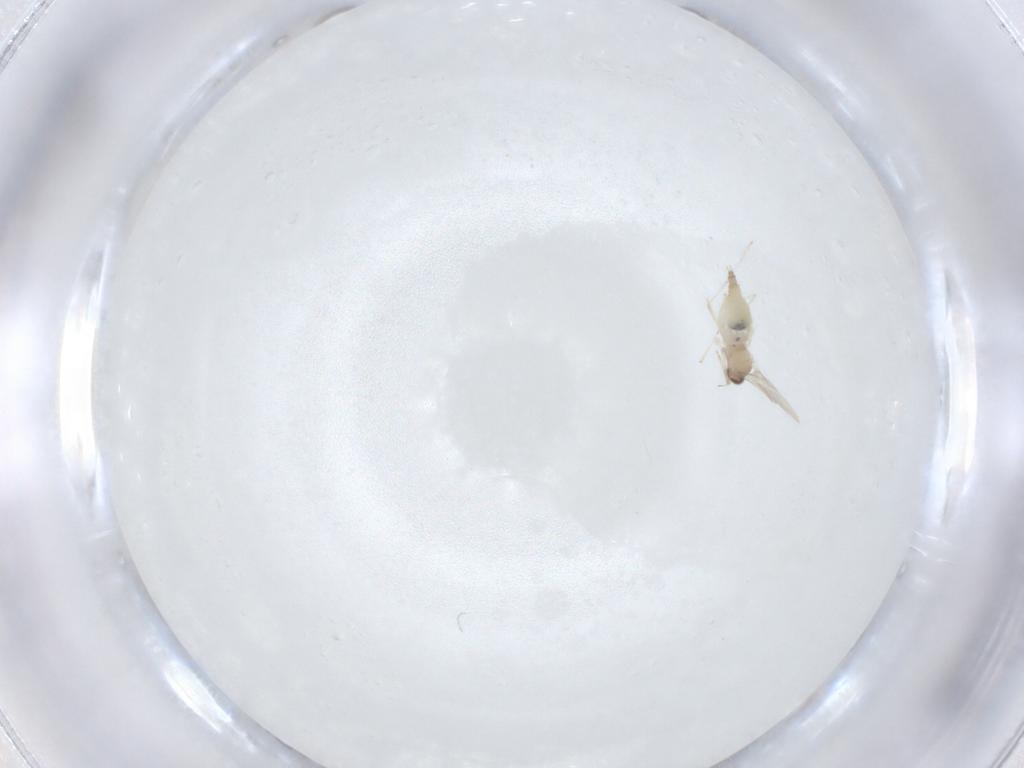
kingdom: Animalia
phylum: Arthropoda
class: Insecta
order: Diptera
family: Cecidomyiidae
